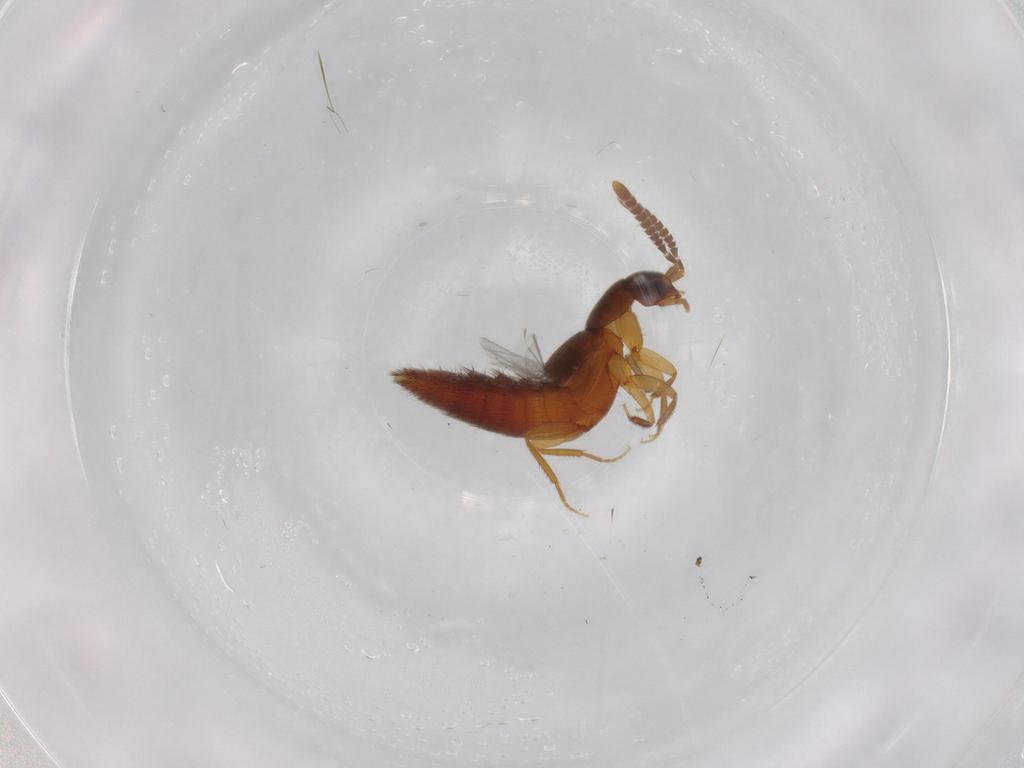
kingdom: Animalia
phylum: Arthropoda
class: Insecta
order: Coleoptera
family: Staphylinidae
